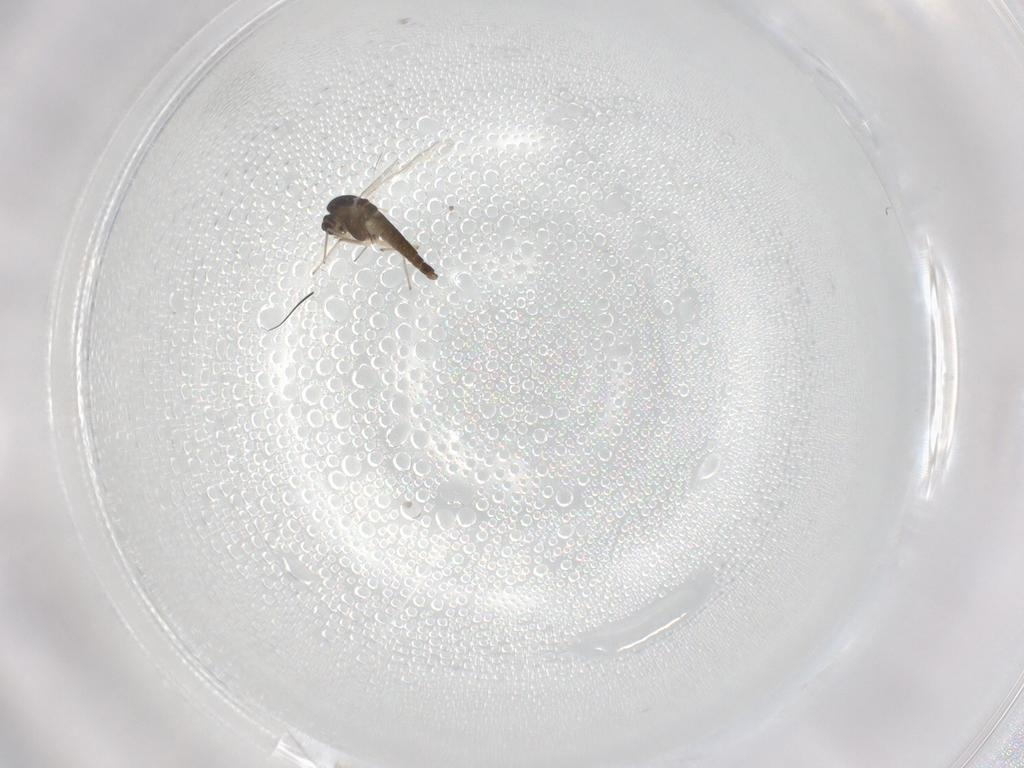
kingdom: Animalia
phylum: Arthropoda
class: Insecta
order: Diptera
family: Chironomidae
